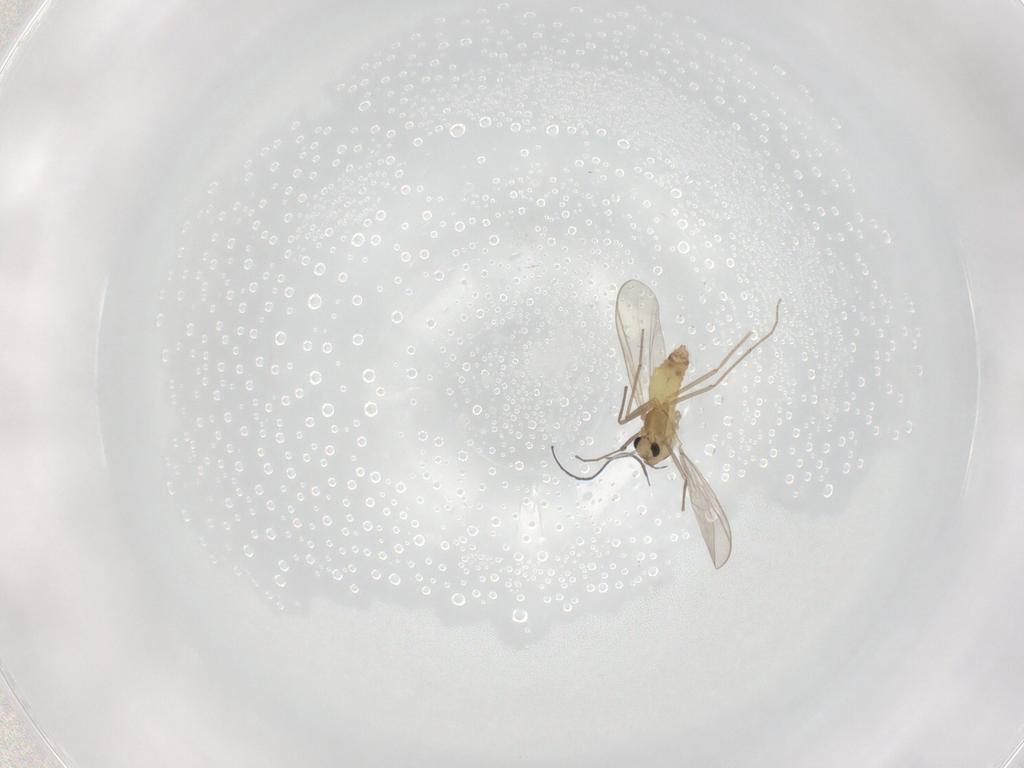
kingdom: Animalia
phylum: Arthropoda
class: Insecta
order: Diptera
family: Chironomidae
